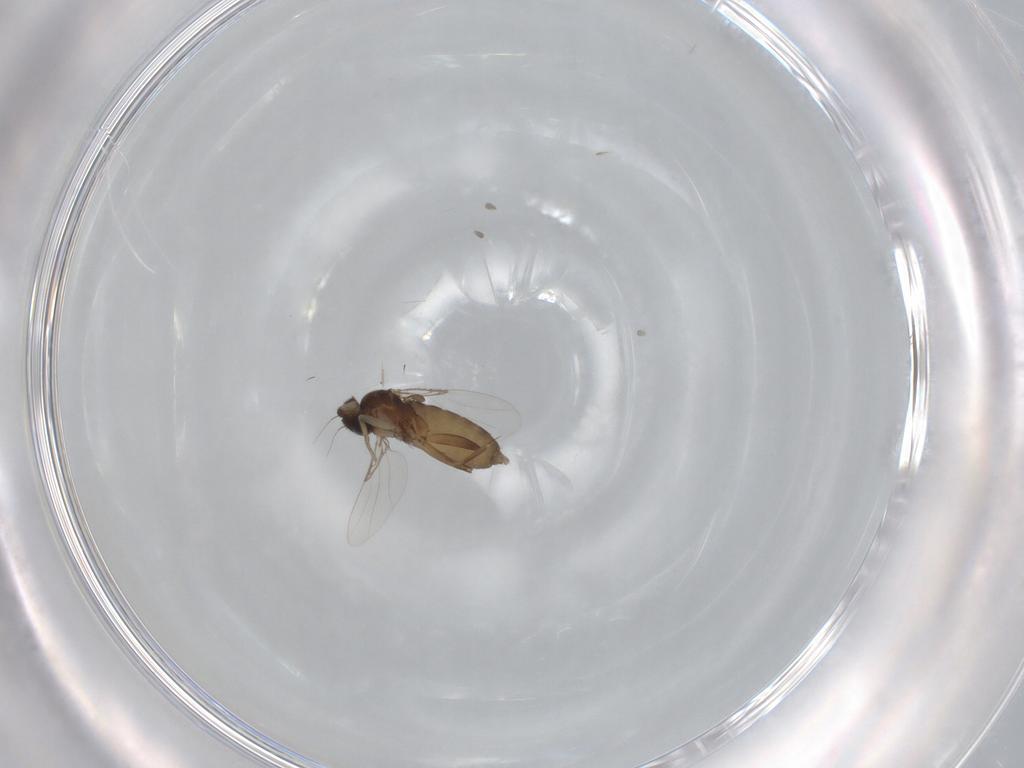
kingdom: Animalia
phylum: Arthropoda
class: Insecta
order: Diptera
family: Phoridae
